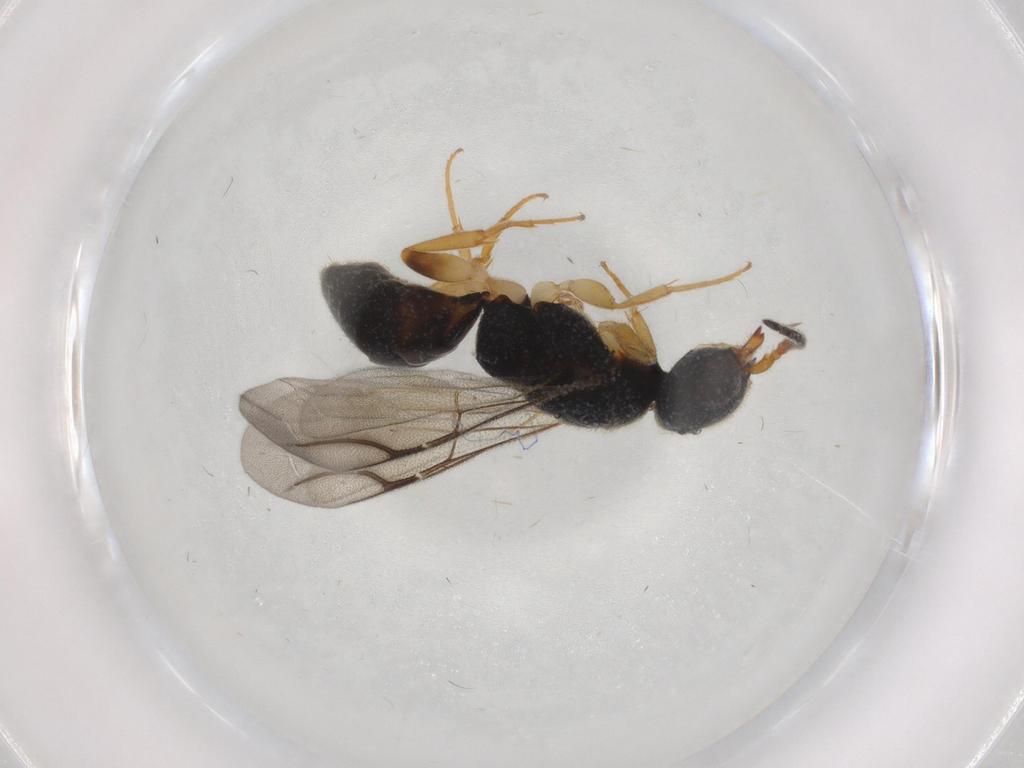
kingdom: Animalia
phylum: Arthropoda
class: Insecta
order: Hymenoptera
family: Bethylidae
